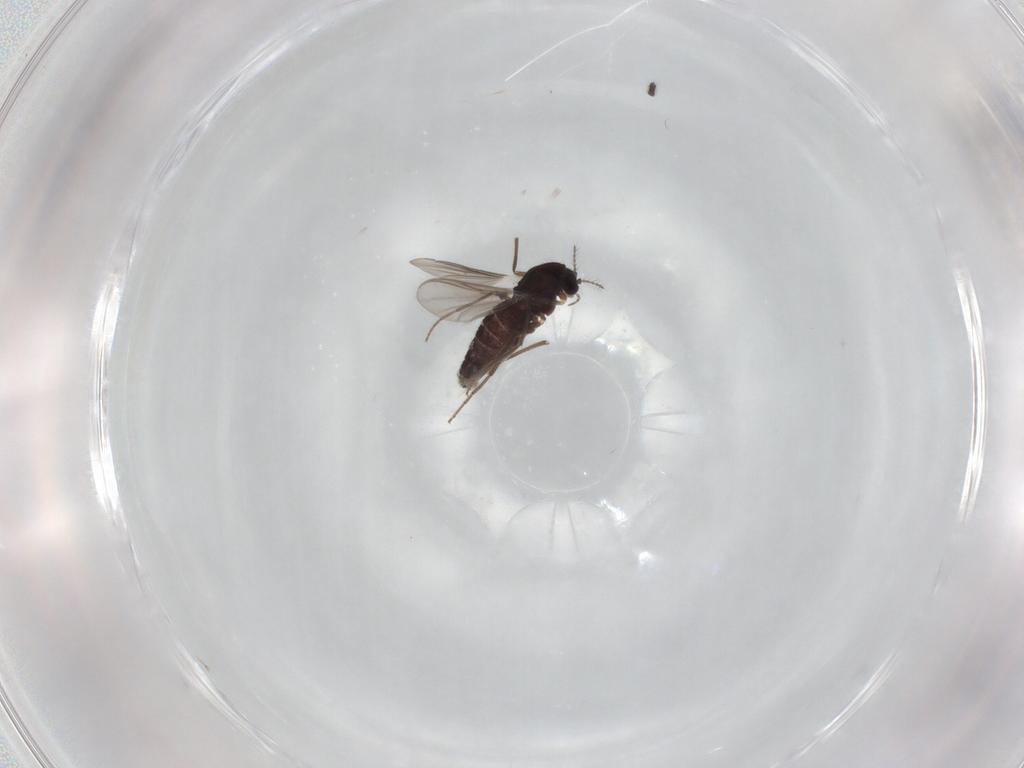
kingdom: Animalia
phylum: Arthropoda
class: Insecta
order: Diptera
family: Chironomidae
